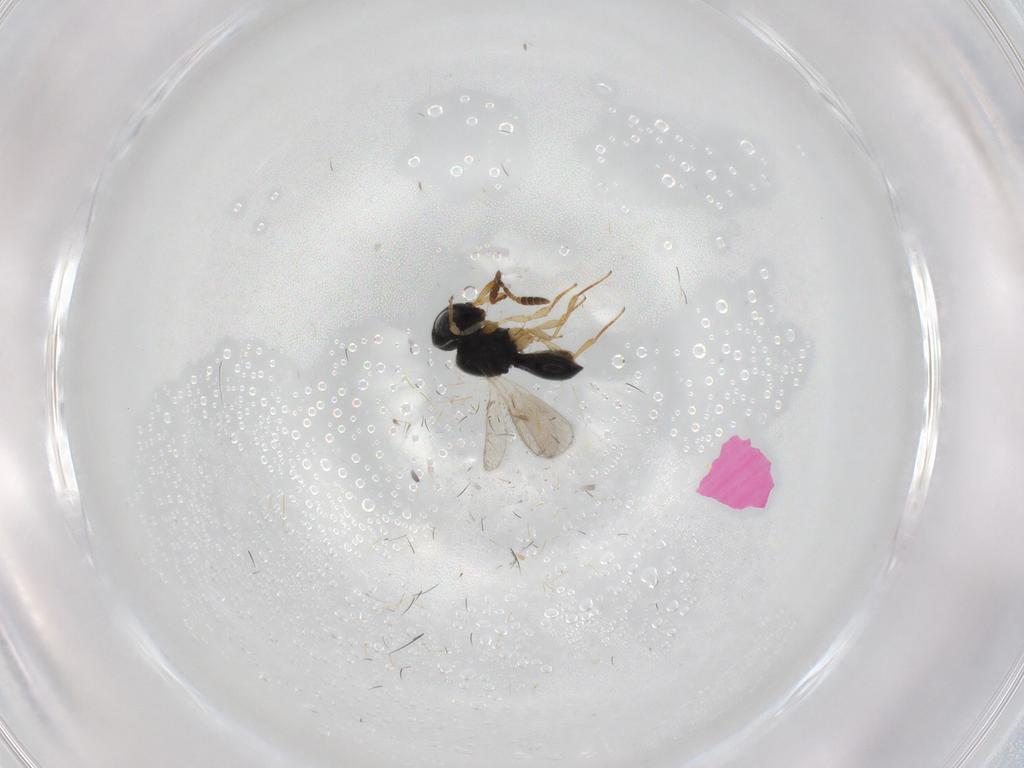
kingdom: Animalia
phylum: Arthropoda
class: Insecta
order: Hymenoptera
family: Scelionidae
